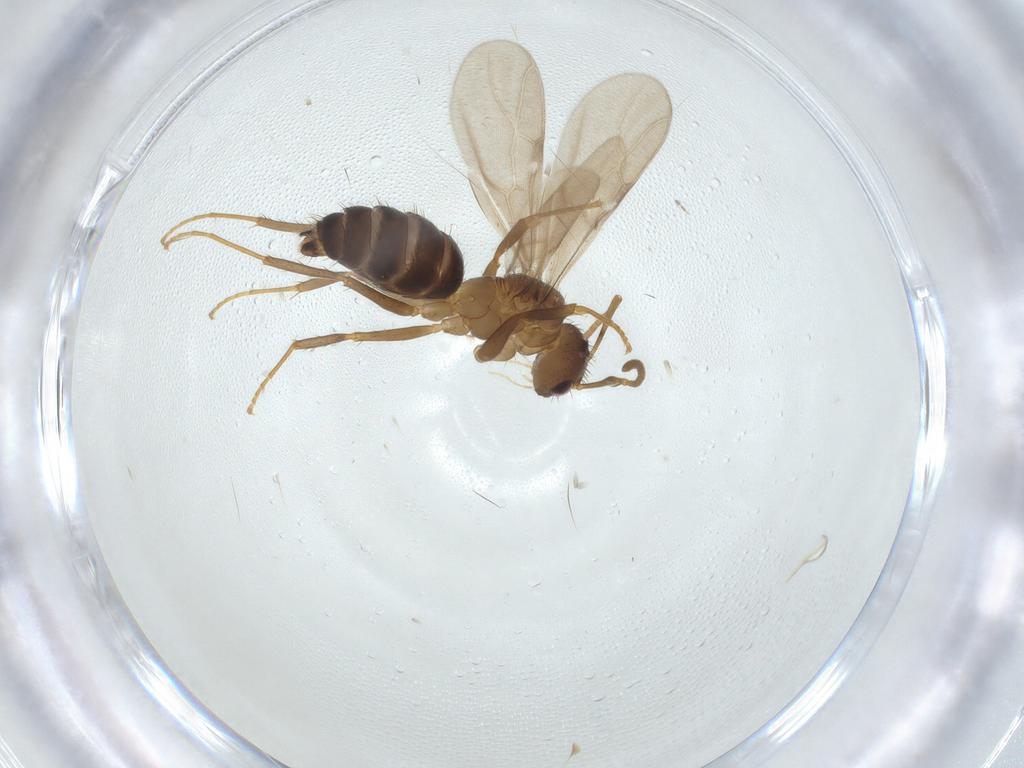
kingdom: Animalia
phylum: Arthropoda
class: Insecta
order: Hymenoptera
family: Formicidae
